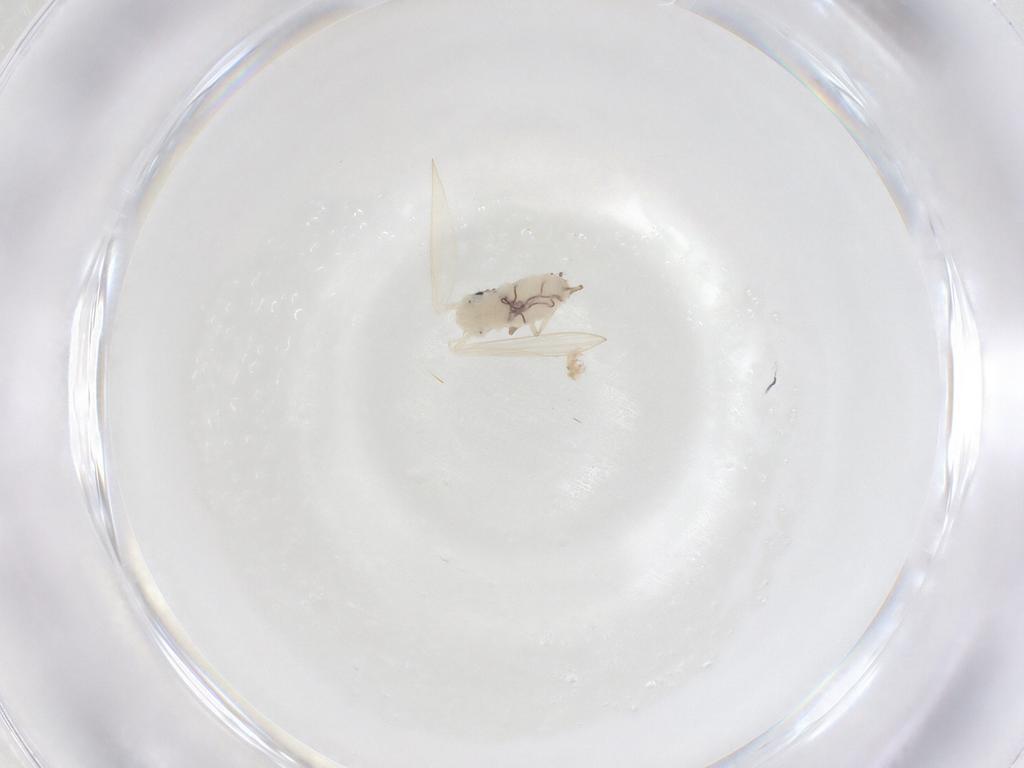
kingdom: Animalia
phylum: Arthropoda
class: Insecta
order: Diptera
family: Psychodidae
